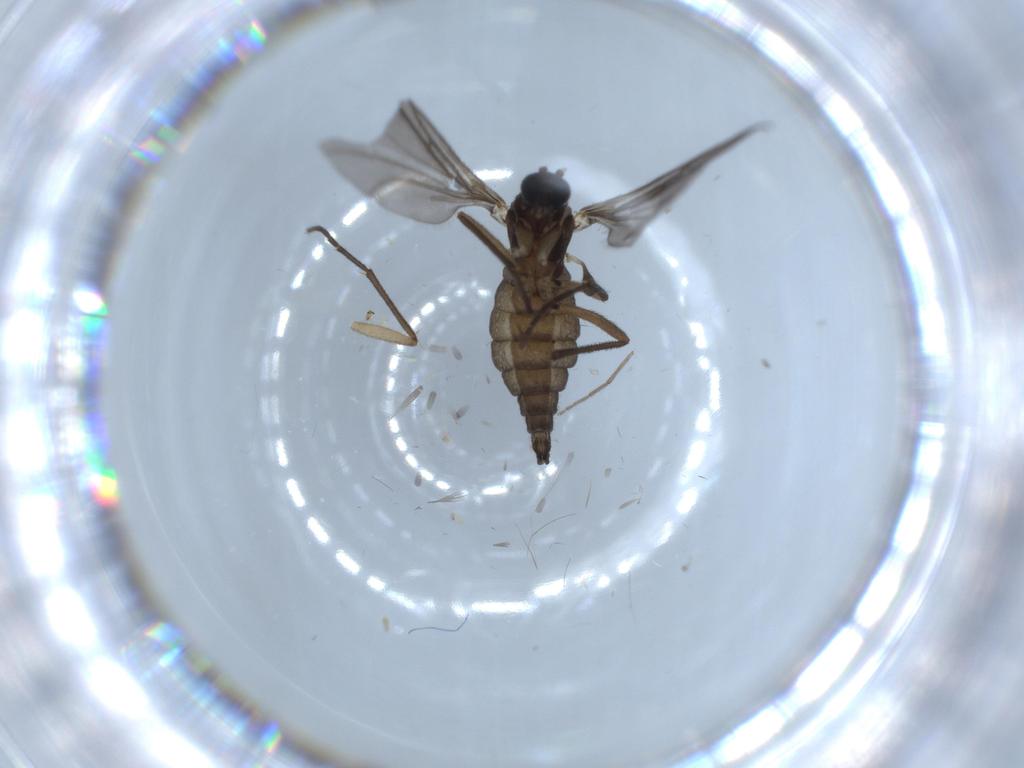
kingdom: Animalia
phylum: Arthropoda
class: Insecta
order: Diptera
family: Sciaridae
